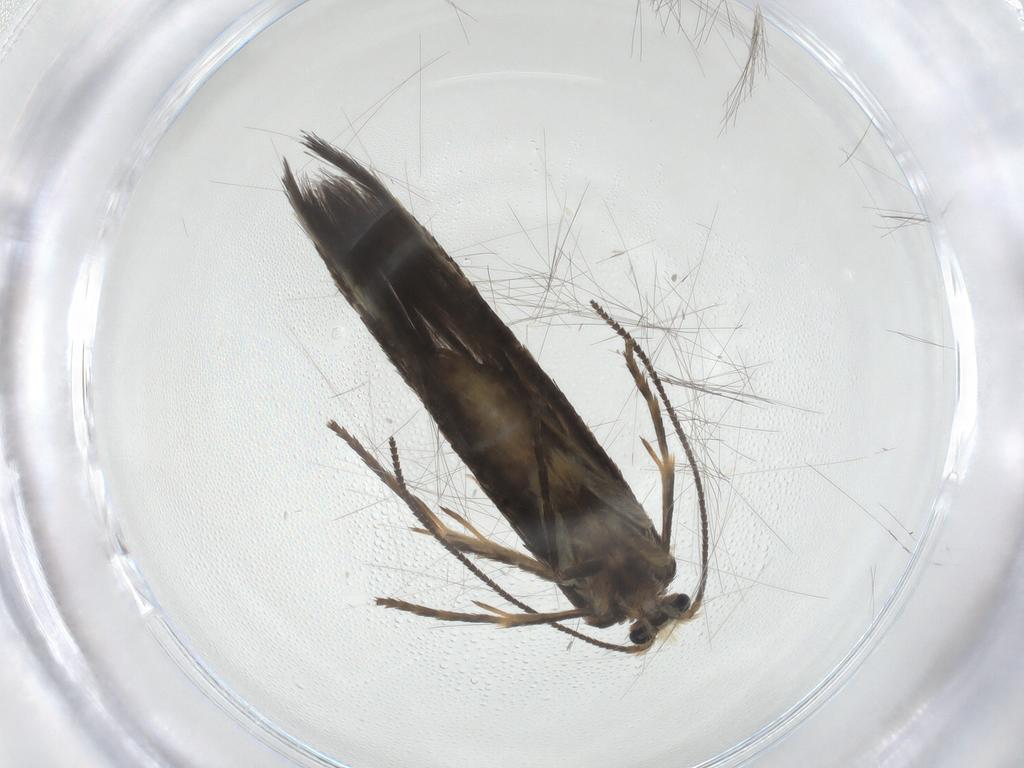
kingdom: Animalia
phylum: Arthropoda
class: Insecta
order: Lepidoptera
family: Nepticulidae
